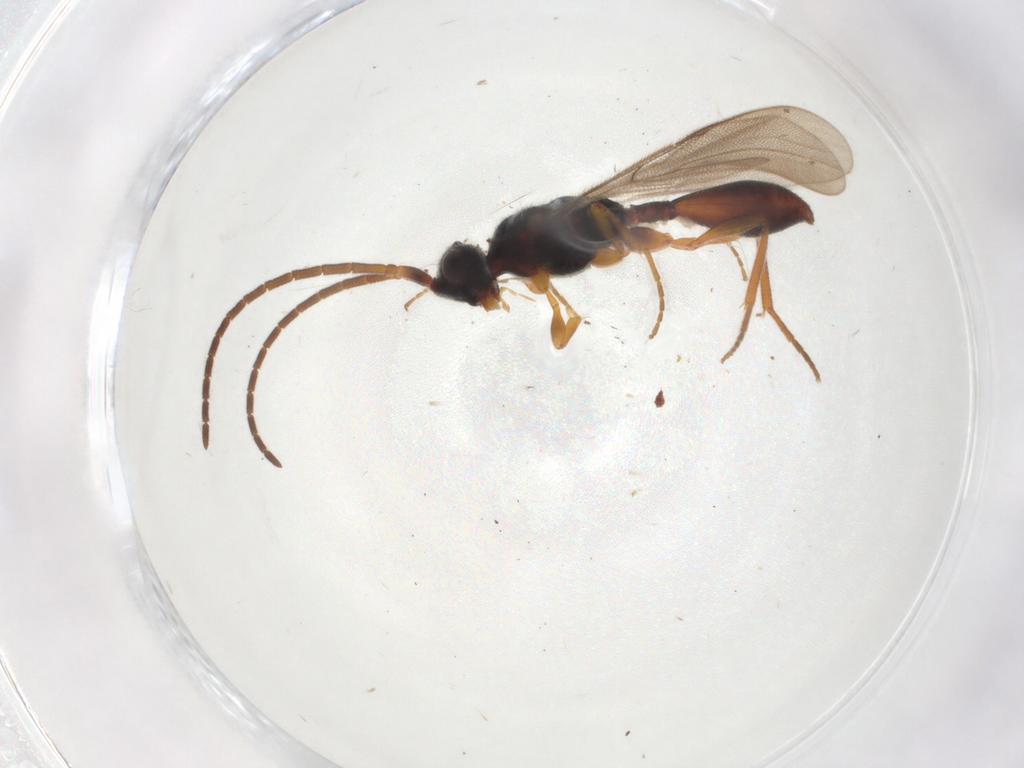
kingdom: Animalia
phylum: Arthropoda
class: Insecta
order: Hymenoptera
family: Diapriidae
